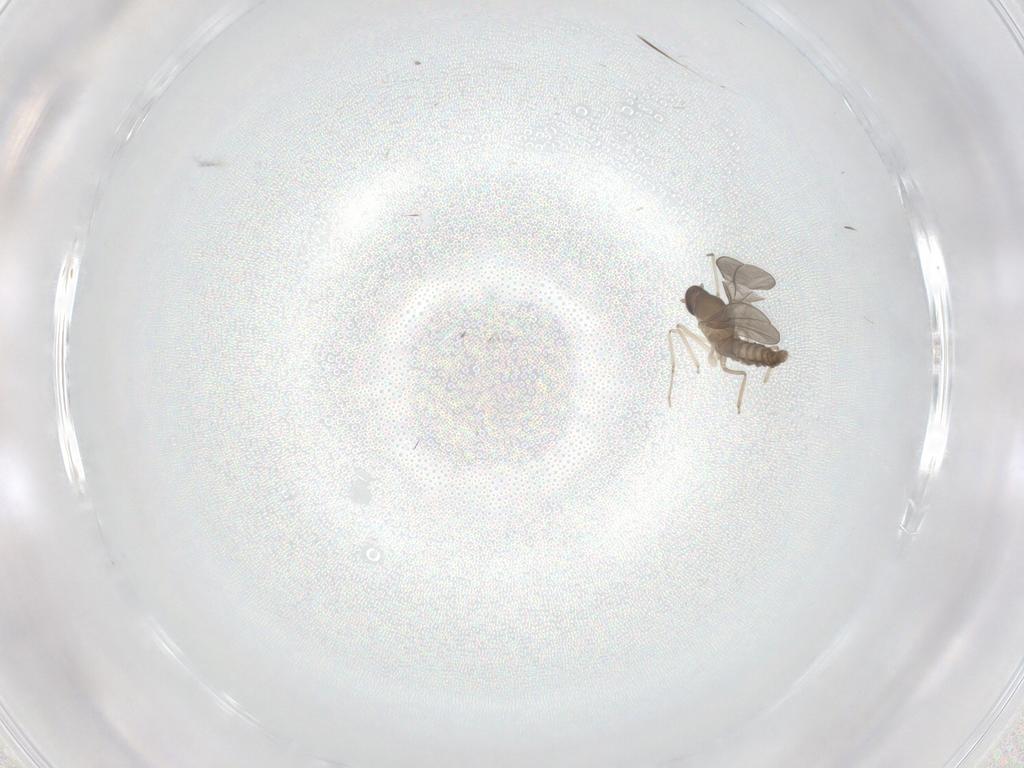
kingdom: Animalia
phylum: Arthropoda
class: Insecta
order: Diptera
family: Cecidomyiidae
